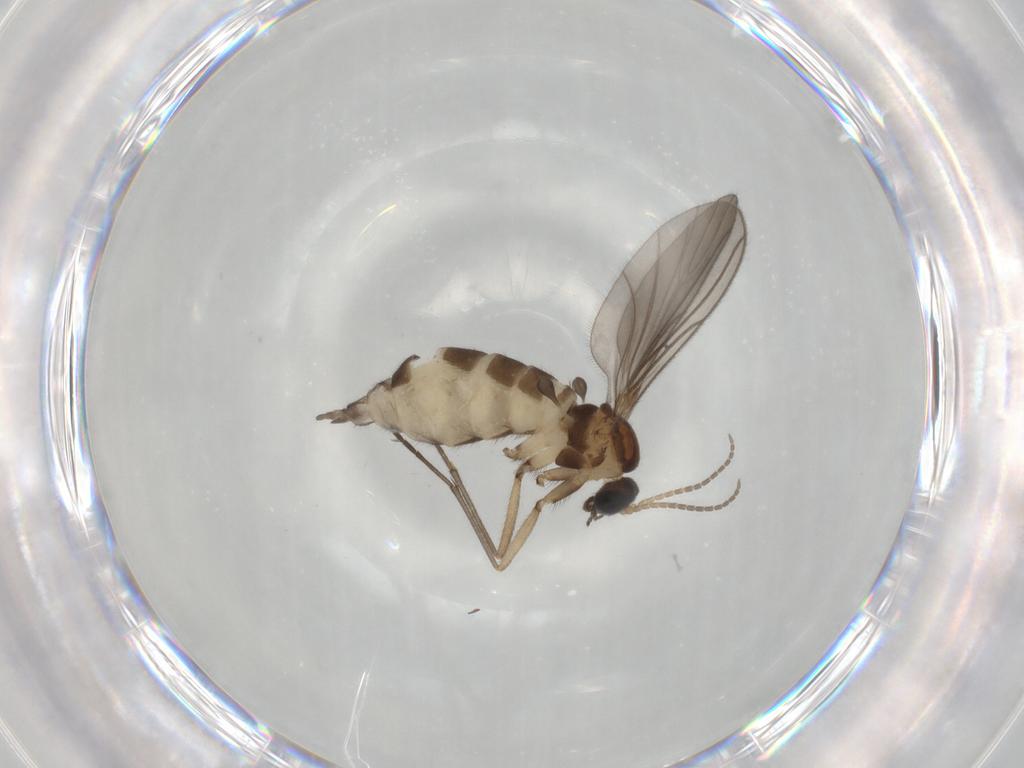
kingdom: Animalia
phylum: Arthropoda
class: Insecta
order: Diptera
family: Sciaridae
